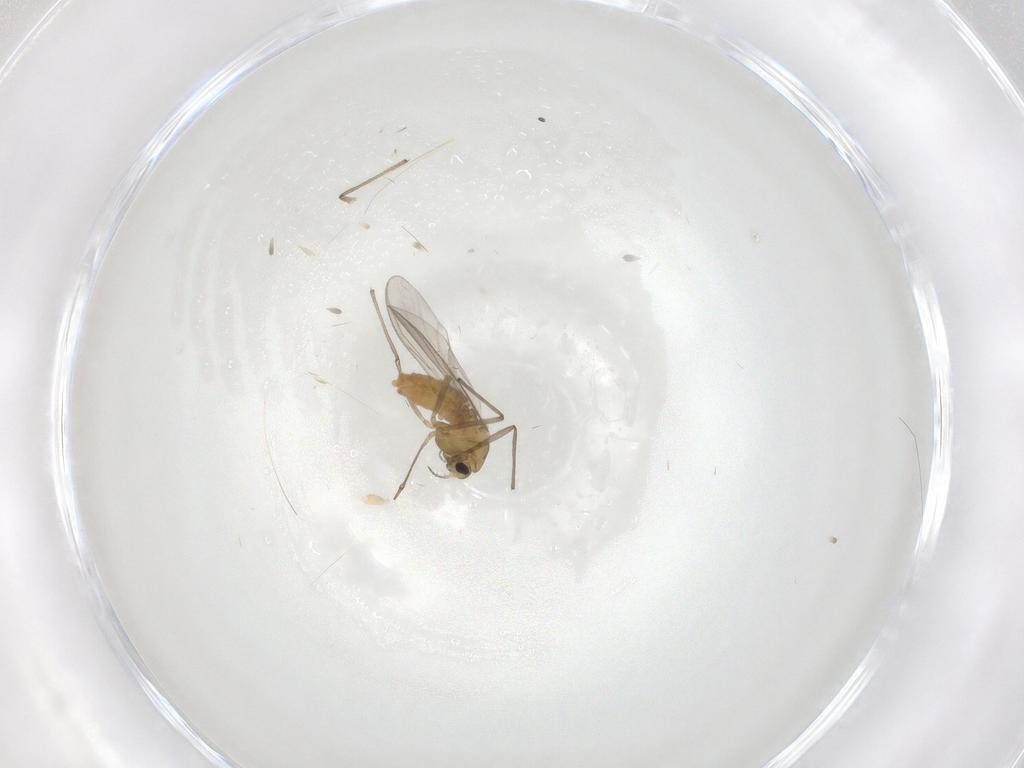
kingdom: Animalia
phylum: Arthropoda
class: Insecta
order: Diptera
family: Chironomidae
